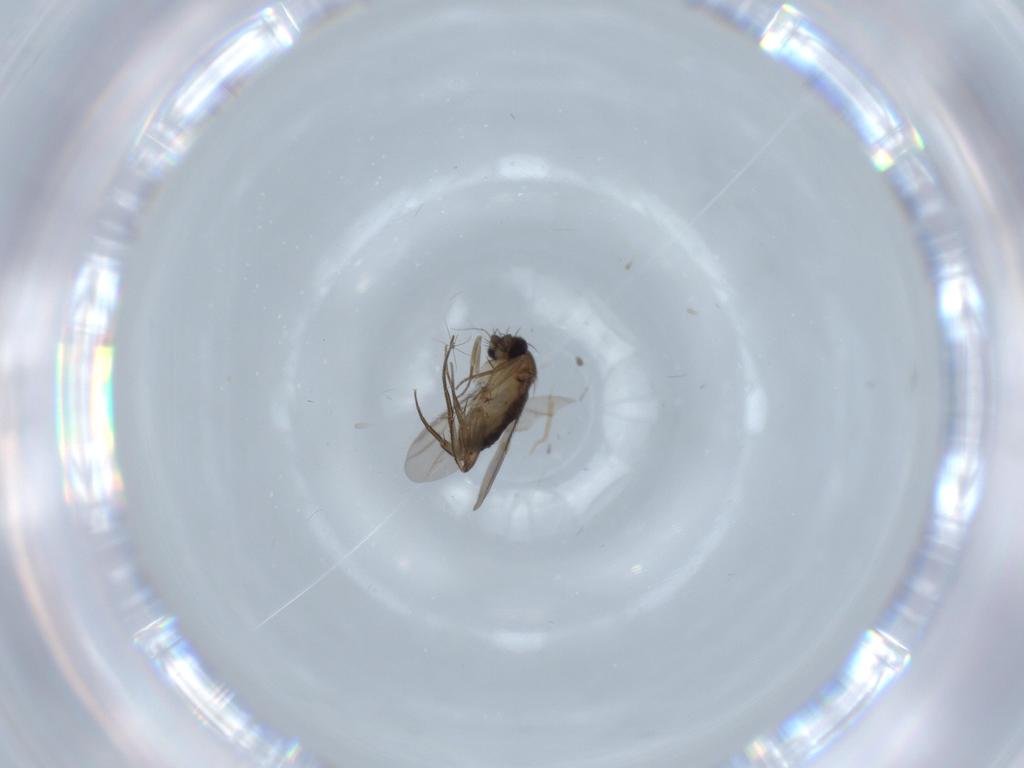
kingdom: Animalia
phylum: Arthropoda
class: Insecta
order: Diptera
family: Phoridae
